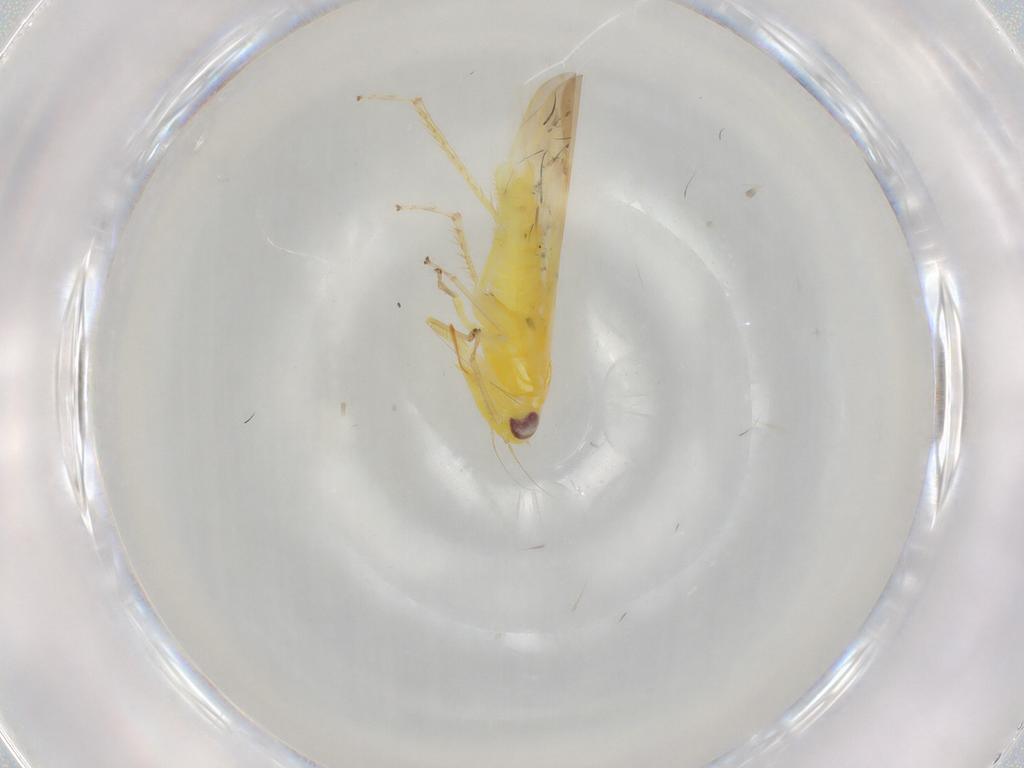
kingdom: Animalia
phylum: Arthropoda
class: Insecta
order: Hemiptera
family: Cicadellidae
